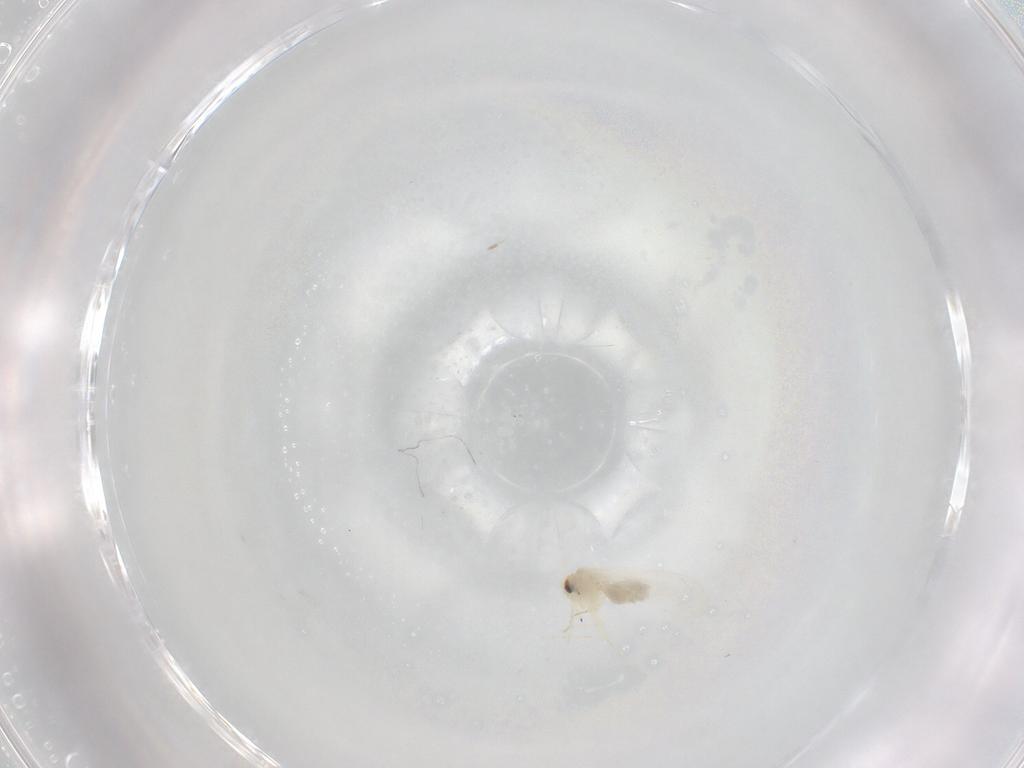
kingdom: Animalia
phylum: Arthropoda
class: Insecta
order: Hemiptera
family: Aleyrodidae
